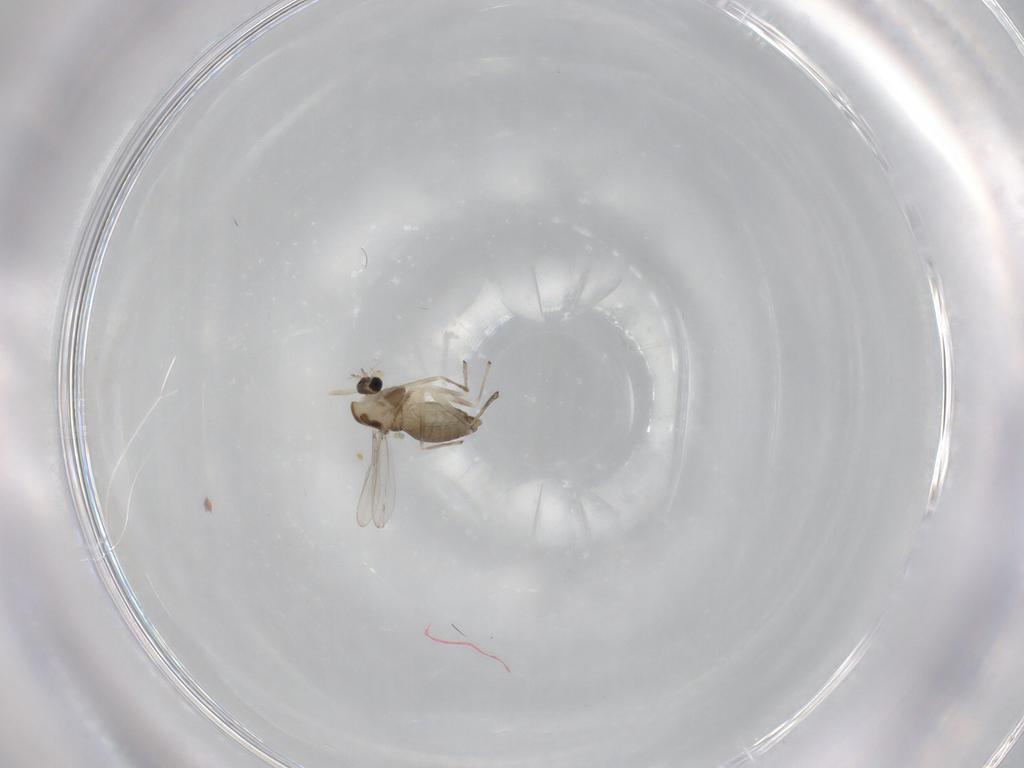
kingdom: Animalia
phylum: Arthropoda
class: Insecta
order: Diptera
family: Chironomidae
